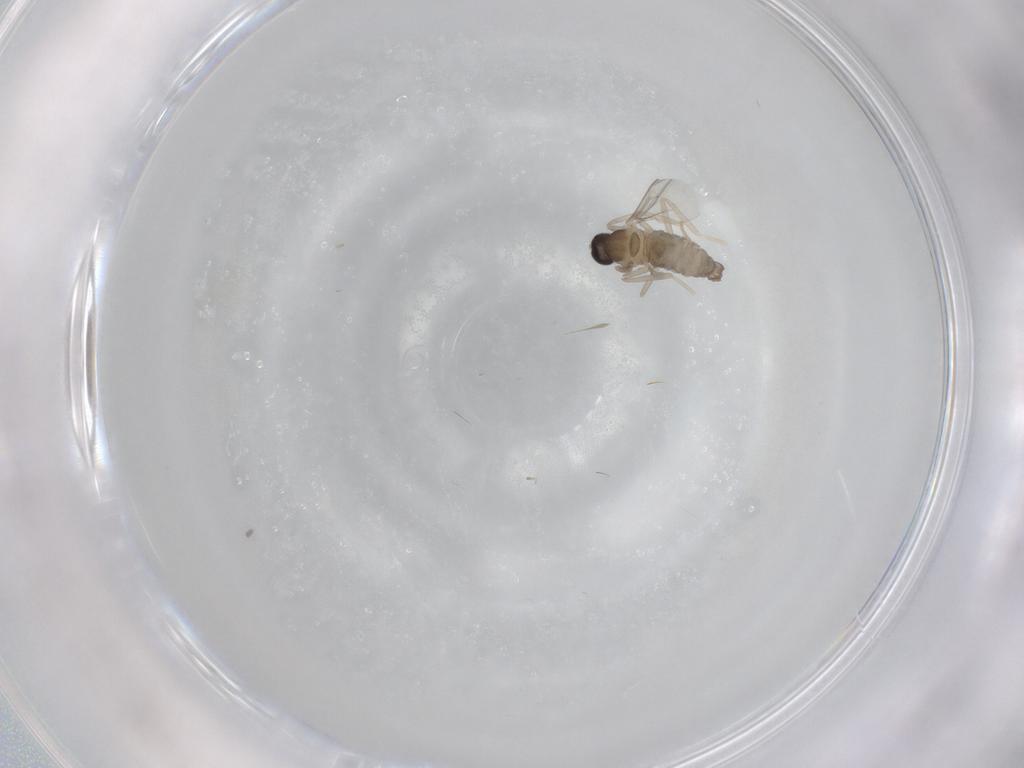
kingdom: Animalia
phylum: Arthropoda
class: Insecta
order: Diptera
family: Cecidomyiidae
